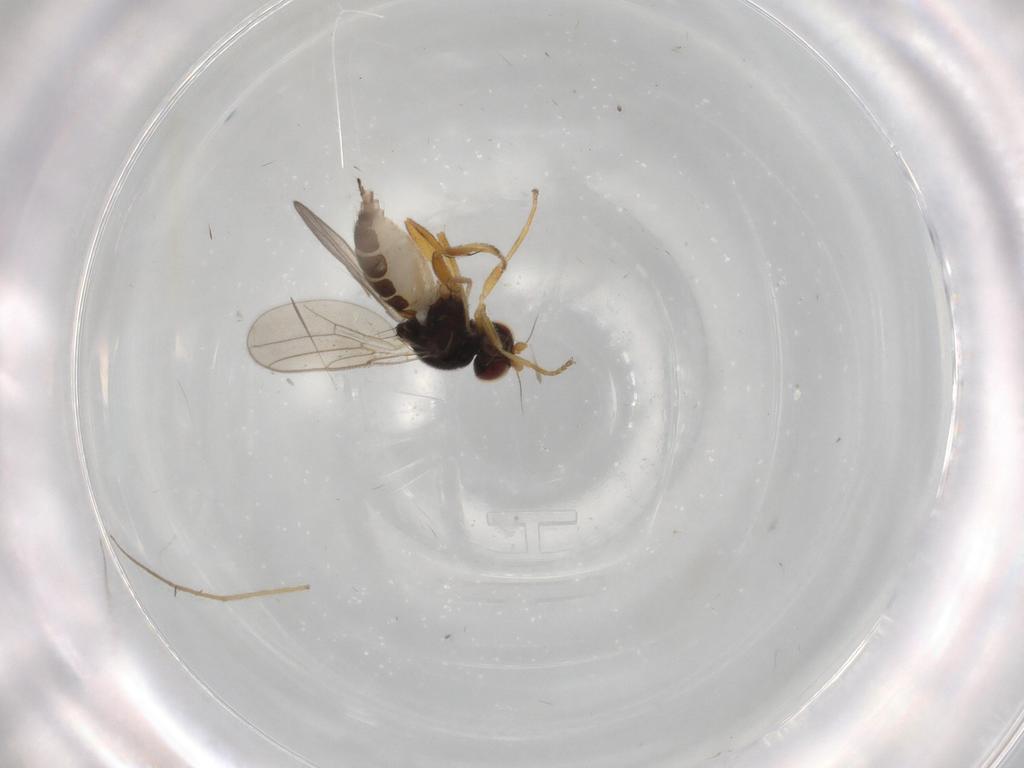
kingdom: Animalia
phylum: Arthropoda
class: Insecta
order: Diptera
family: Chloropidae
